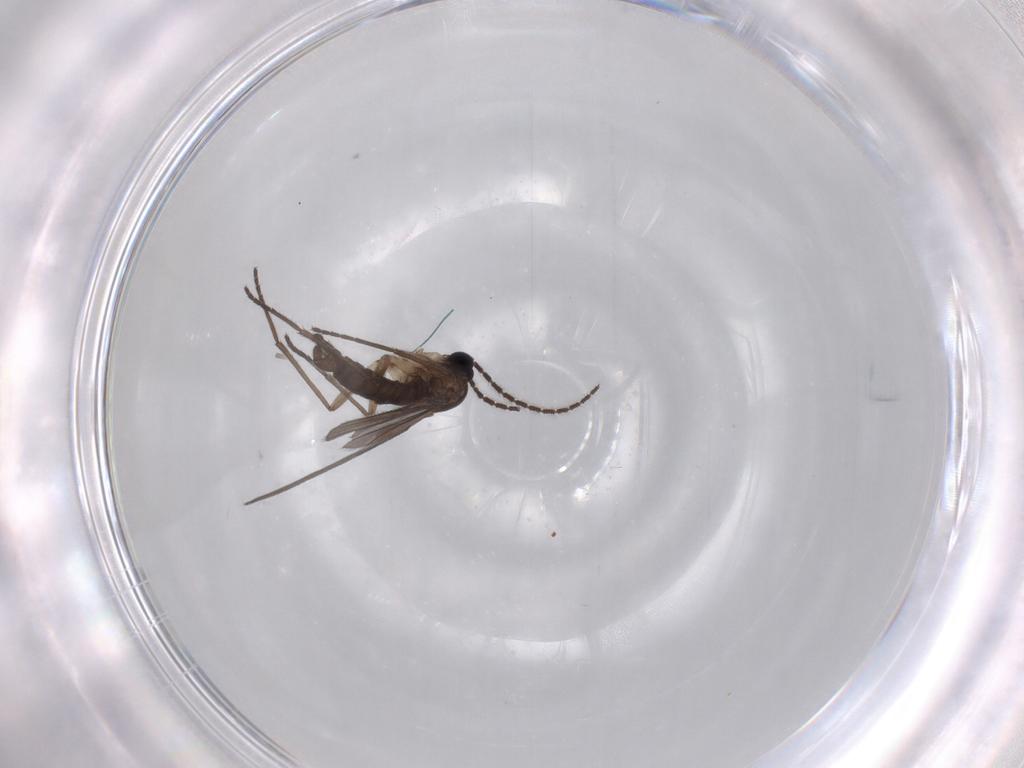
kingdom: Animalia
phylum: Arthropoda
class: Insecta
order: Diptera
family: Sciaridae
